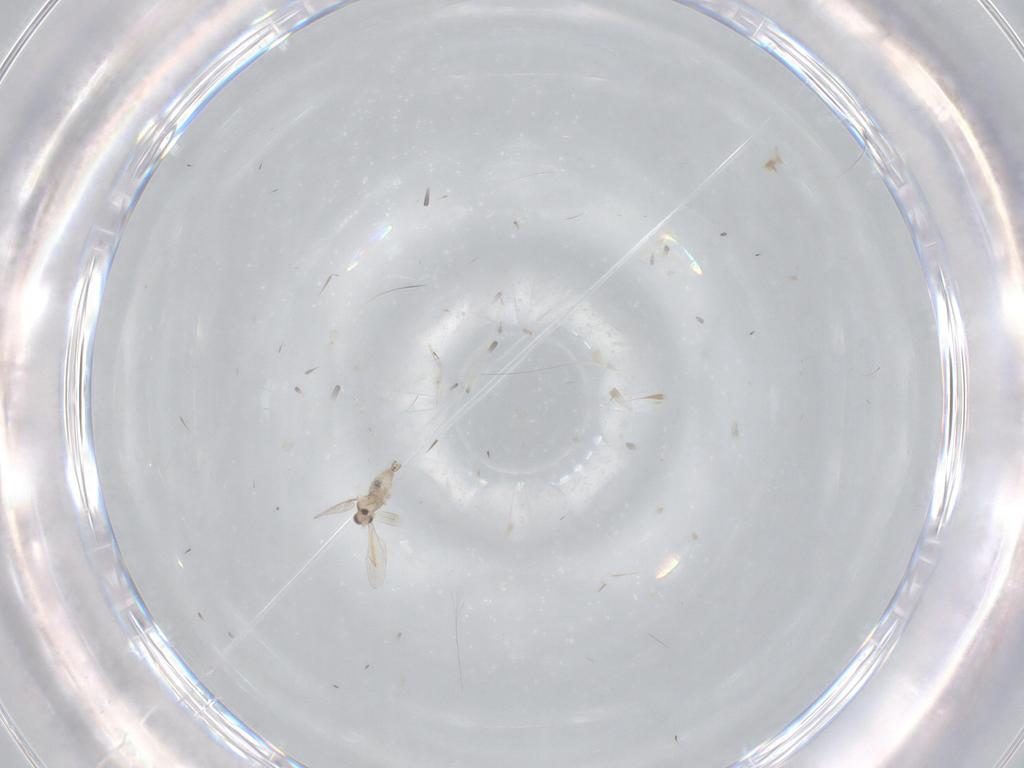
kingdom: Animalia
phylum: Arthropoda
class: Insecta
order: Diptera
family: Cecidomyiidae
